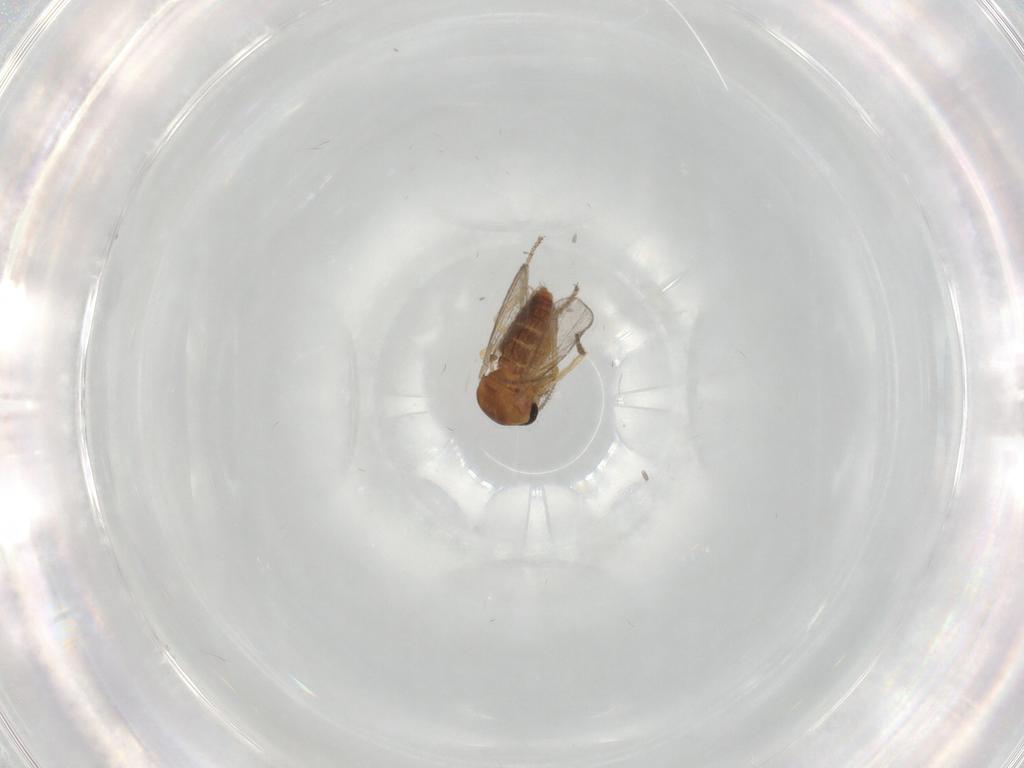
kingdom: Animalia
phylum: Arthropoda
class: Insecta
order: Diptera
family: Ceratopogonidae
